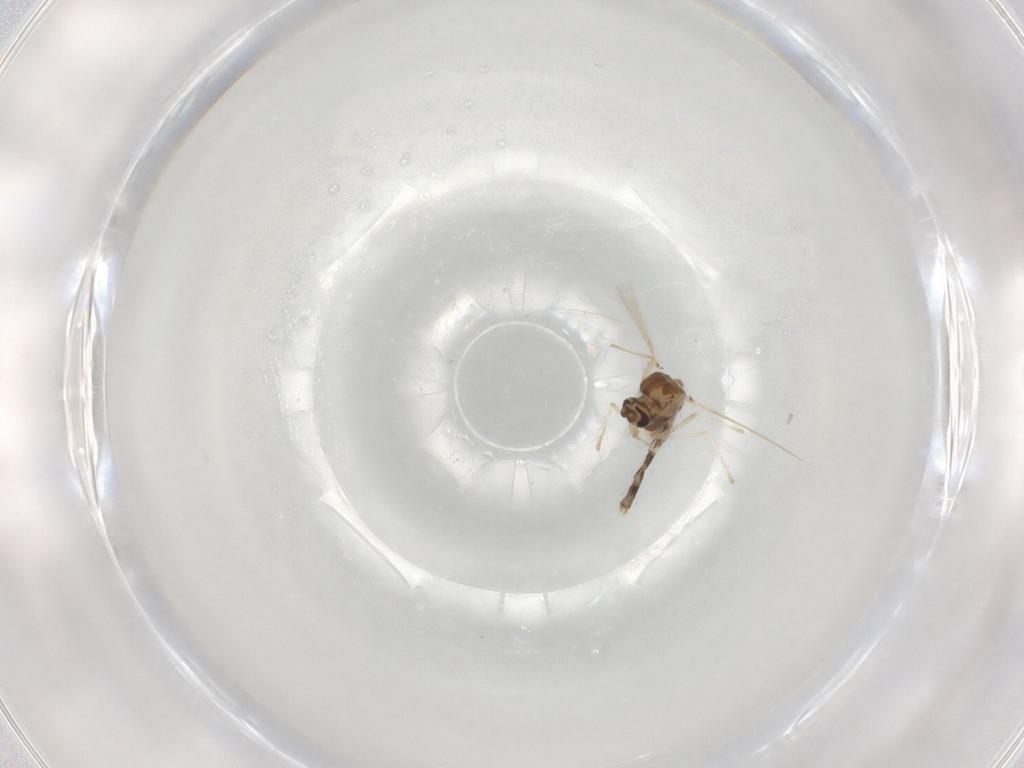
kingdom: Animalia
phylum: Arthropoda
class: Insecta
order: Diptera
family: Chironomidae
